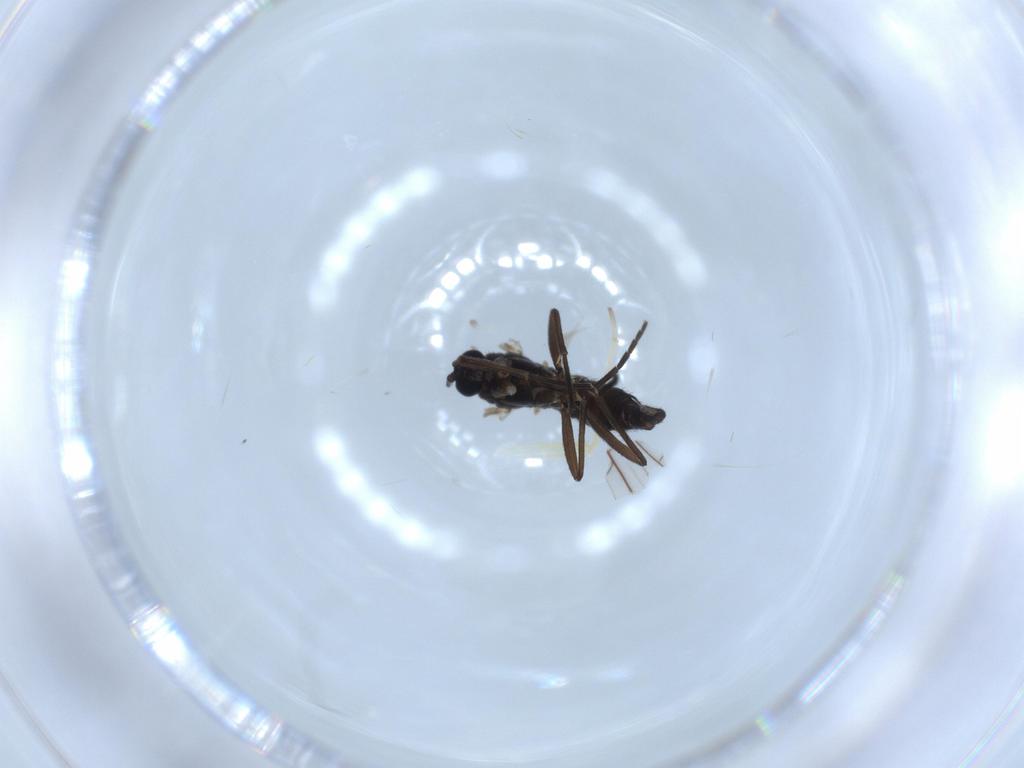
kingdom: Animalia
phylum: Arthropoda
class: Insecta
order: Diptera
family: Sciaridae
